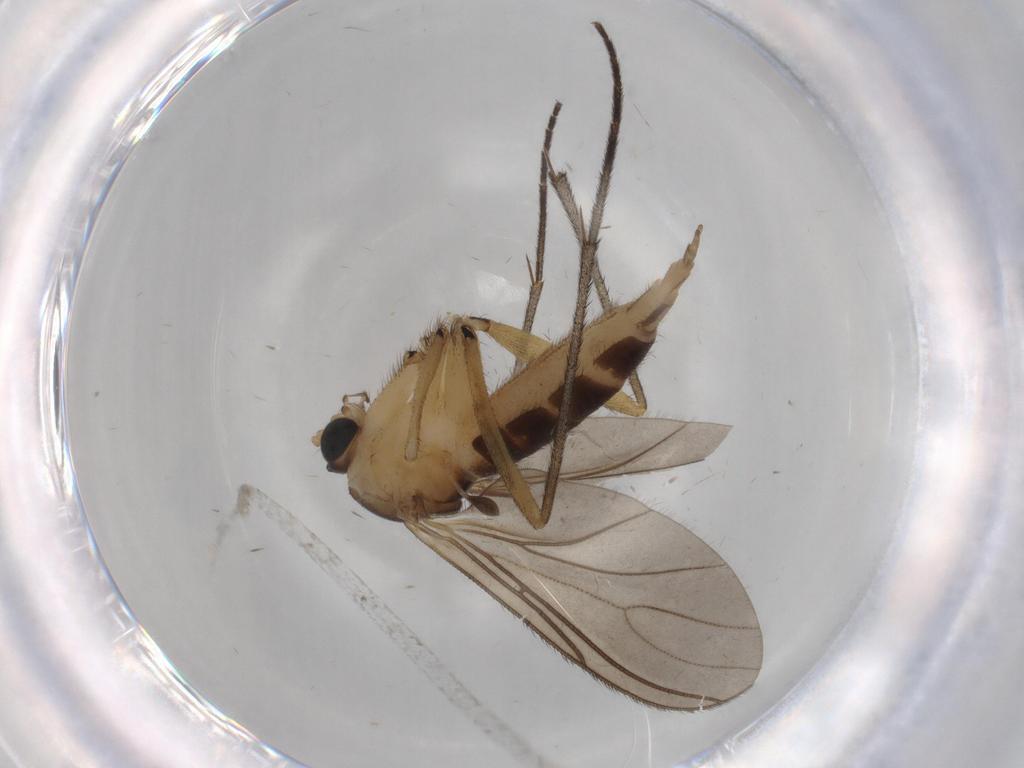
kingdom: Animalia
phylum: Arthropoda
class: Insecta
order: Diptera
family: Sciaridae
